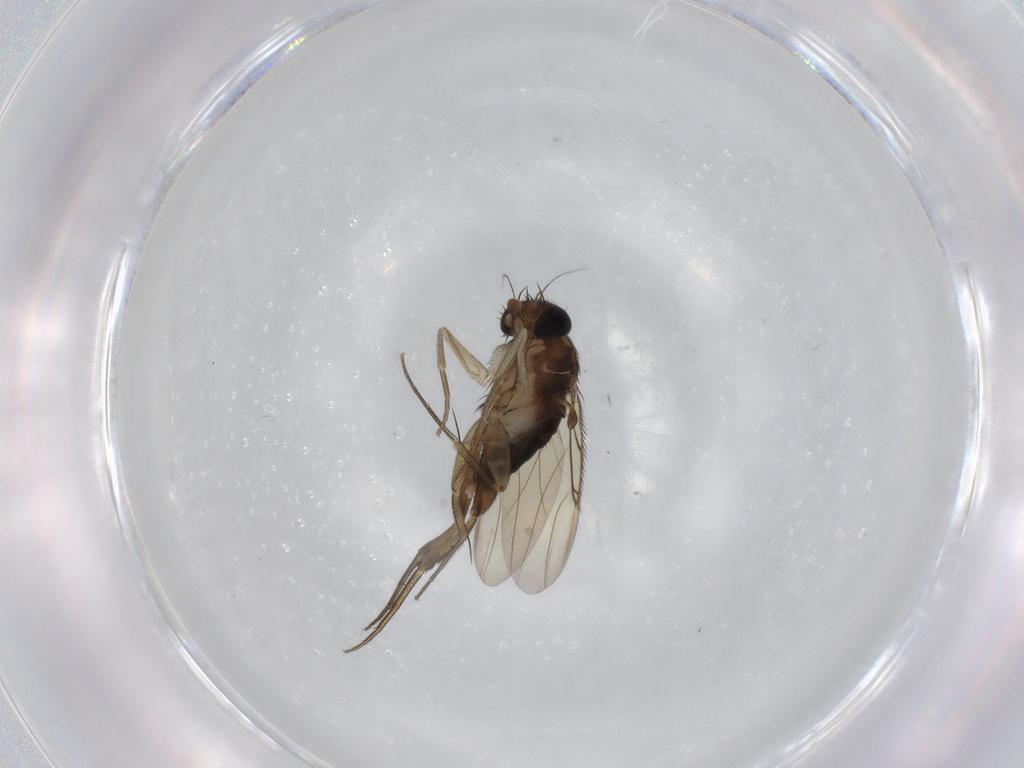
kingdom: Animalia
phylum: Arthropoda
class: Insecta
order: Diptera
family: Phoridae
